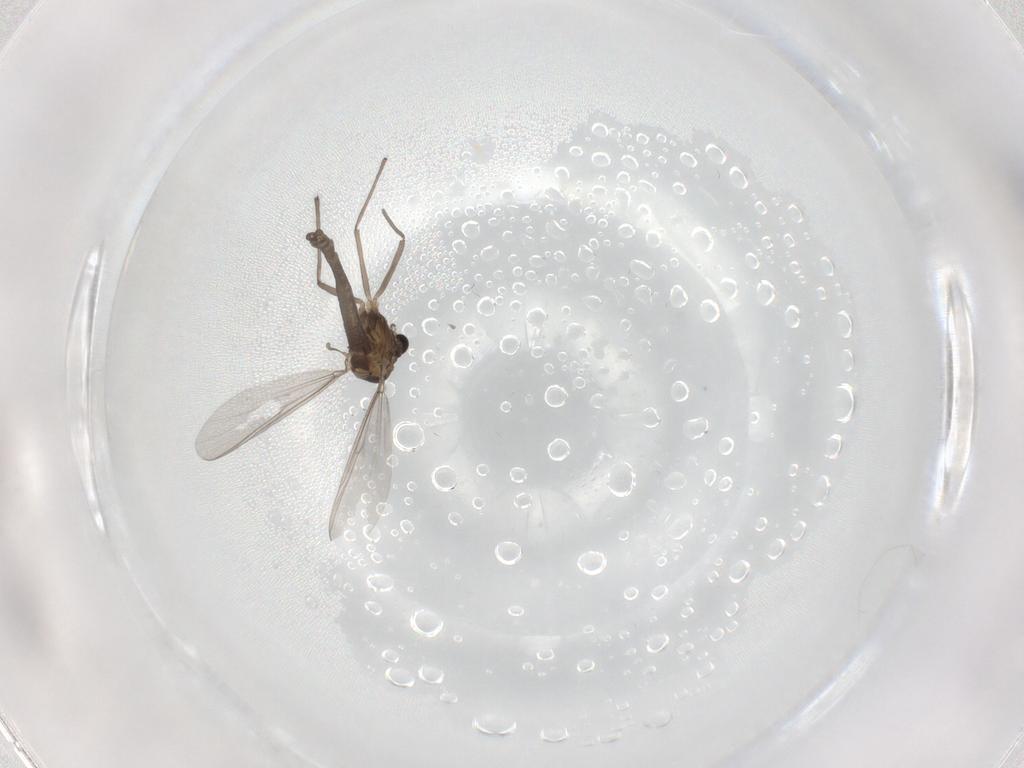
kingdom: Animalia
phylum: Arthropoda
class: Insecta
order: Diptera
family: Chironomidae
